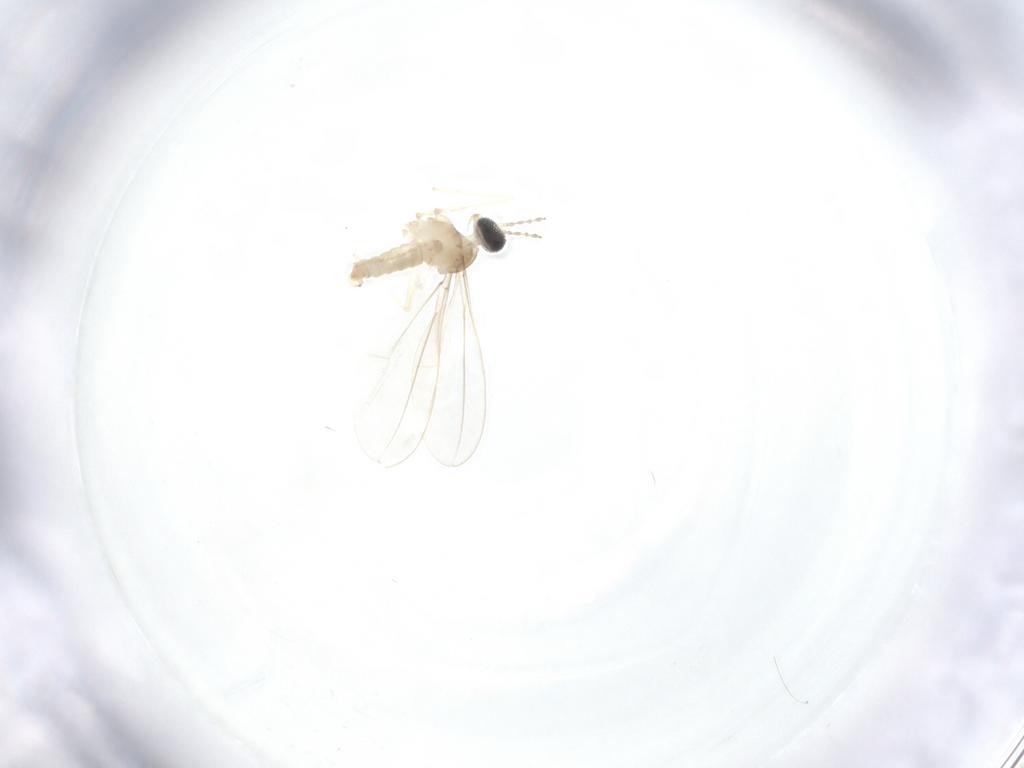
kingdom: Animalia
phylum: Arthropoda
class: Insecta
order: Diptera
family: Cecidomyiidae
